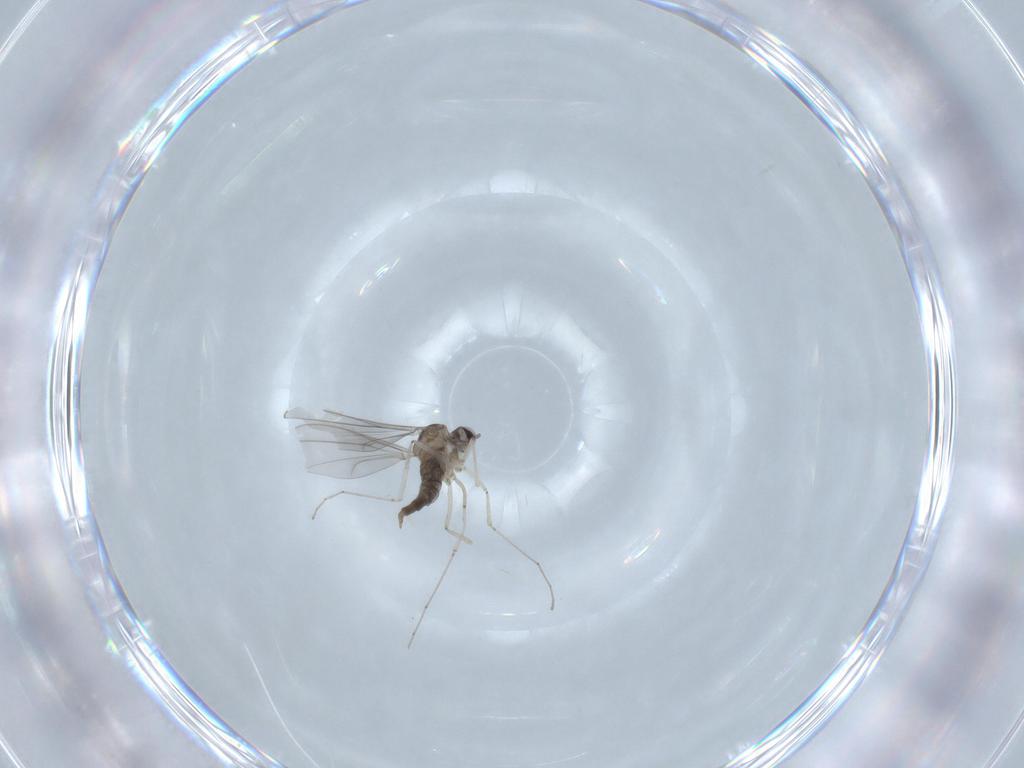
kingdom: Animalia
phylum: Arthropoda
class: Insecta
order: Diptera
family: Cecidomyiidae
